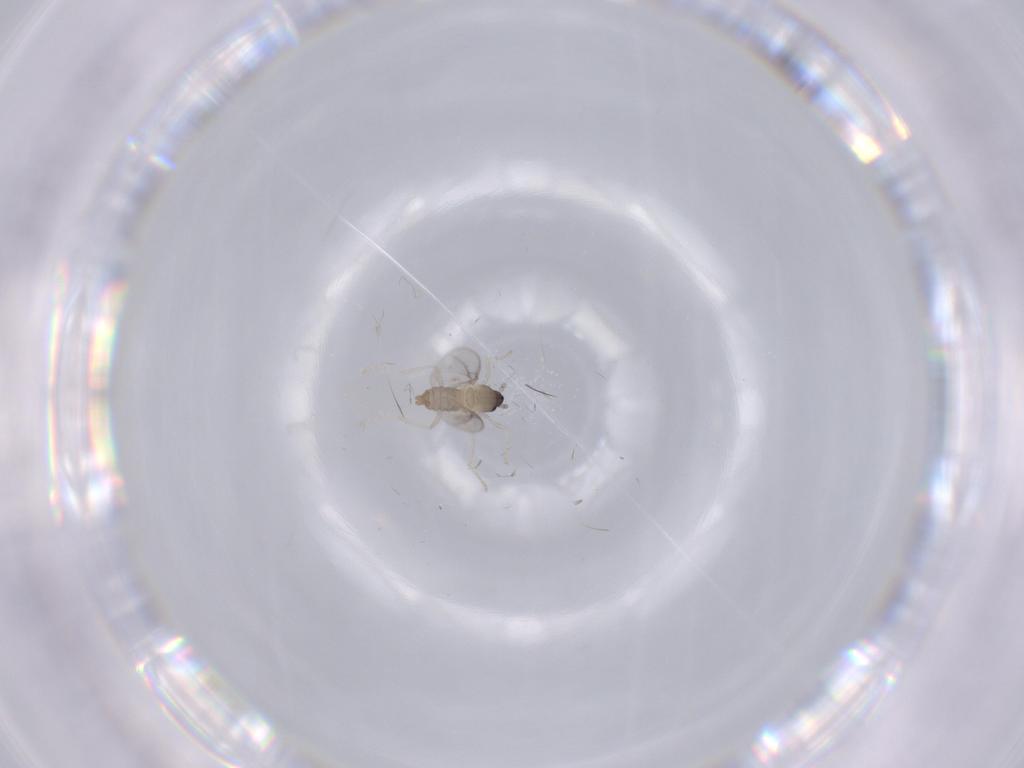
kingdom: Animalia
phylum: Arthropoda
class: Insecta
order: Diptera
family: Cecidomyiidae
